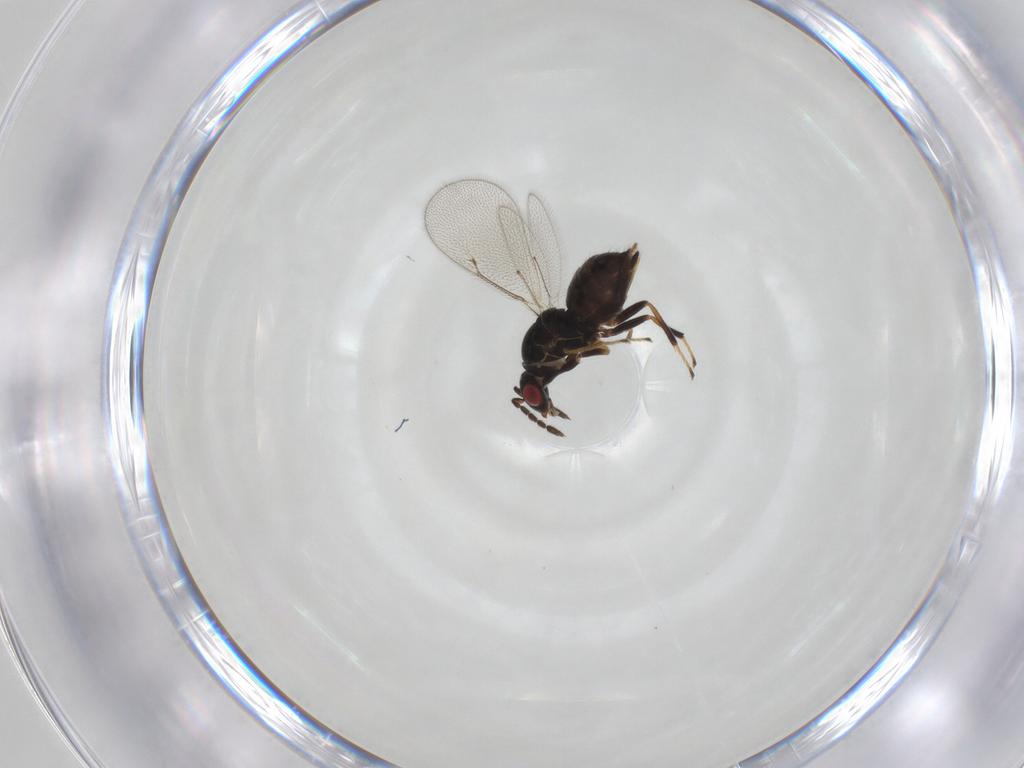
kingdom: Animalia
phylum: Arthropoda
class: Insecta
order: Hymenoptera
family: Eulophidae
